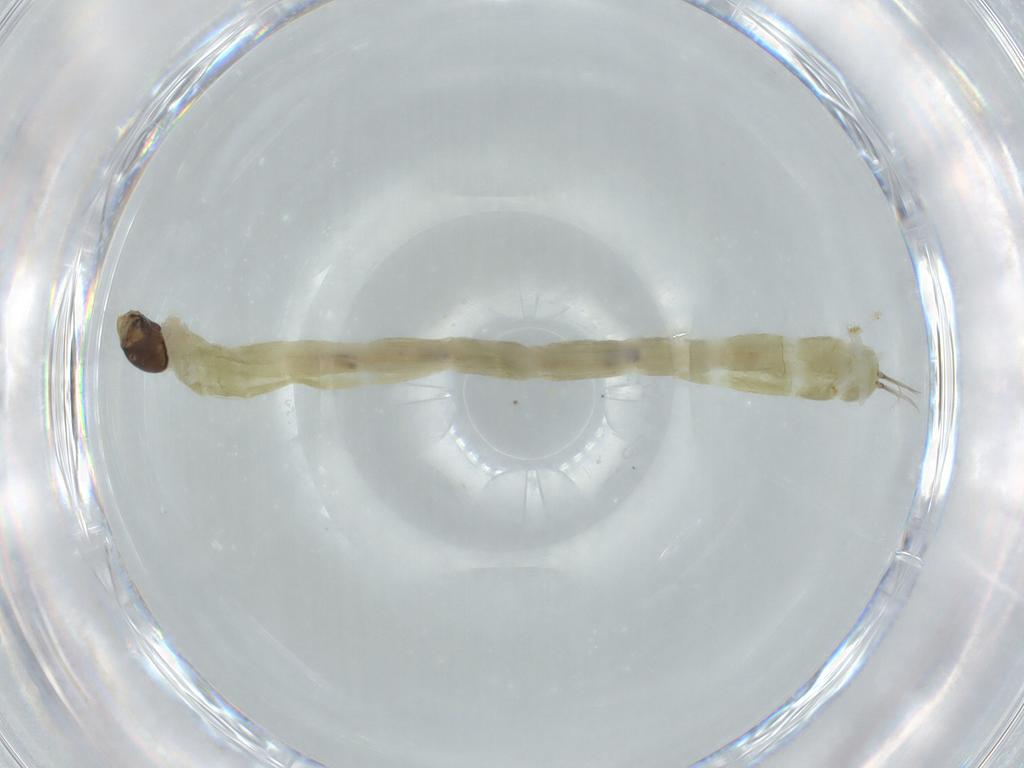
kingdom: Animalia
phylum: Arthropoda
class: Insecta
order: Diptera
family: Chironomidae
